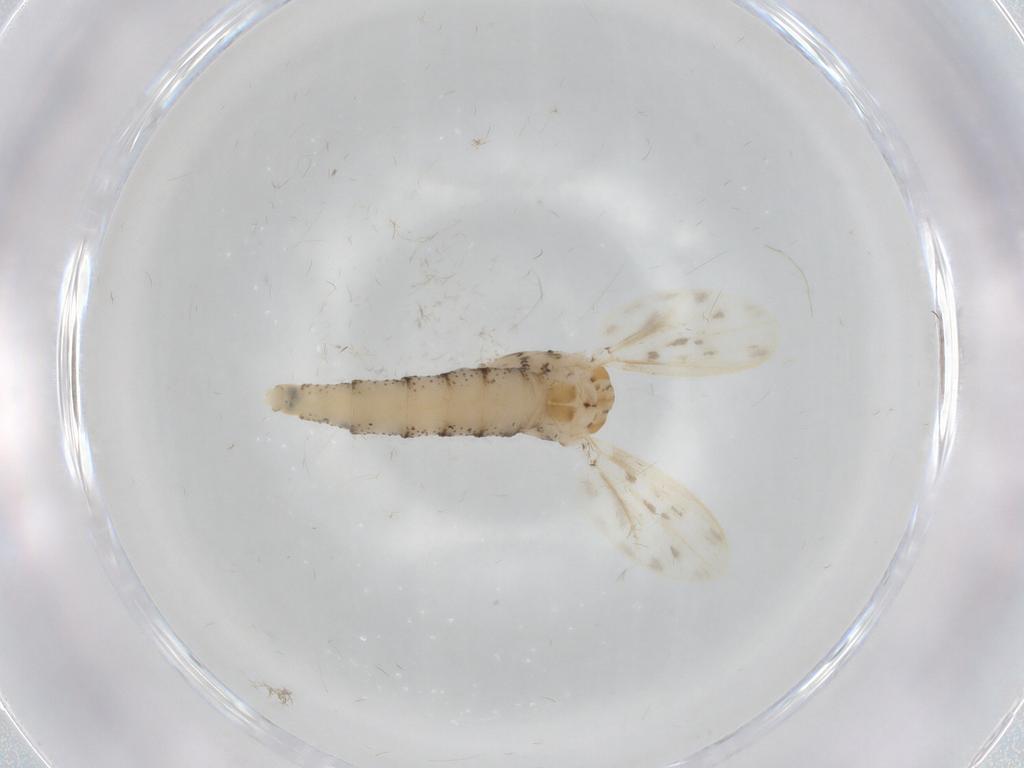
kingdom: Animalia
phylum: Arthropoda
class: Insecta
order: Diptera
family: Chaoboridae
